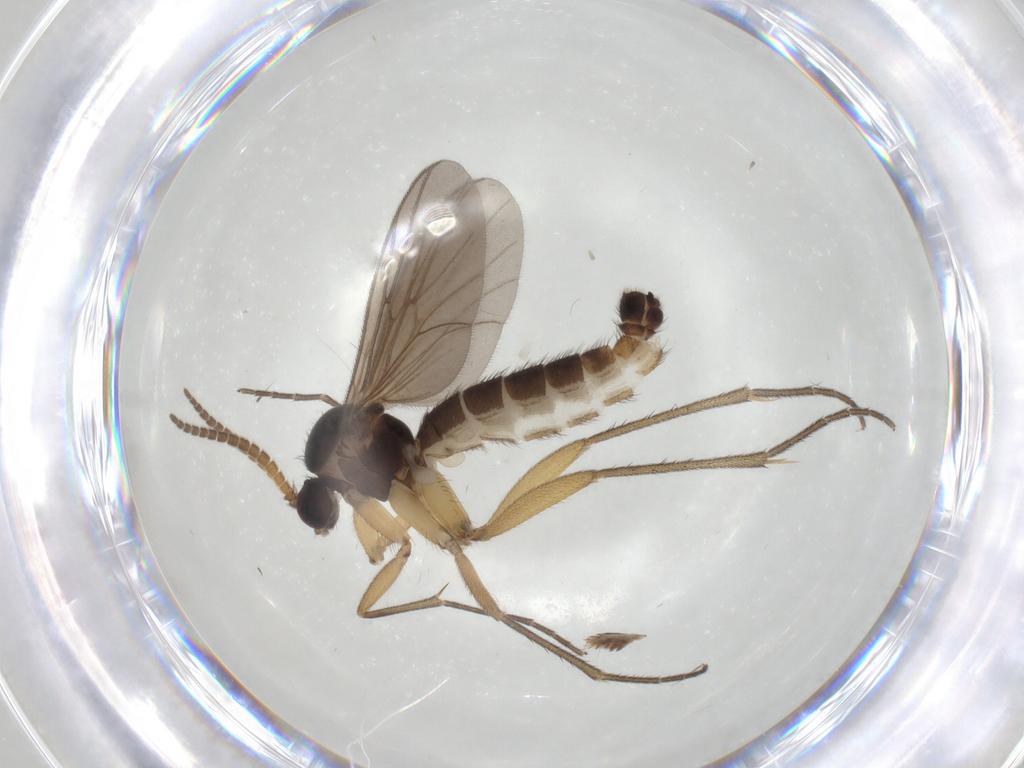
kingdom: Animalia
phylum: Arthropoda
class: Insecta
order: Diptera
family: Mycetophilidae
